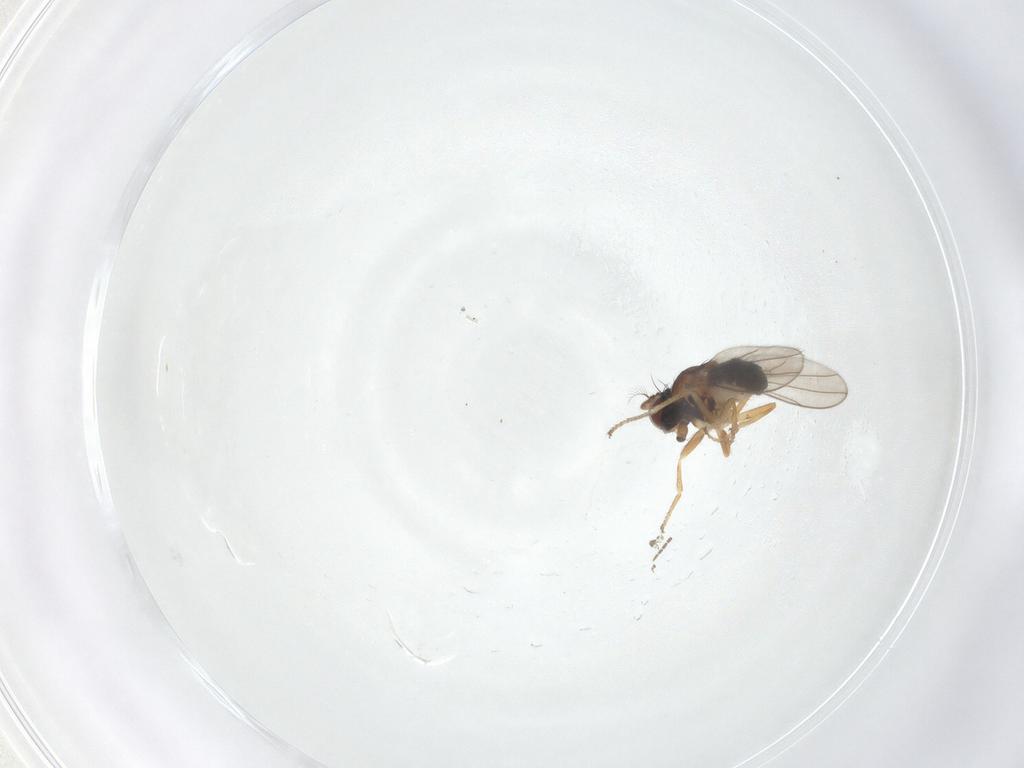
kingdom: Animalia
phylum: Arthropoda
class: Insecta
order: Diptera
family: Ephydridae
